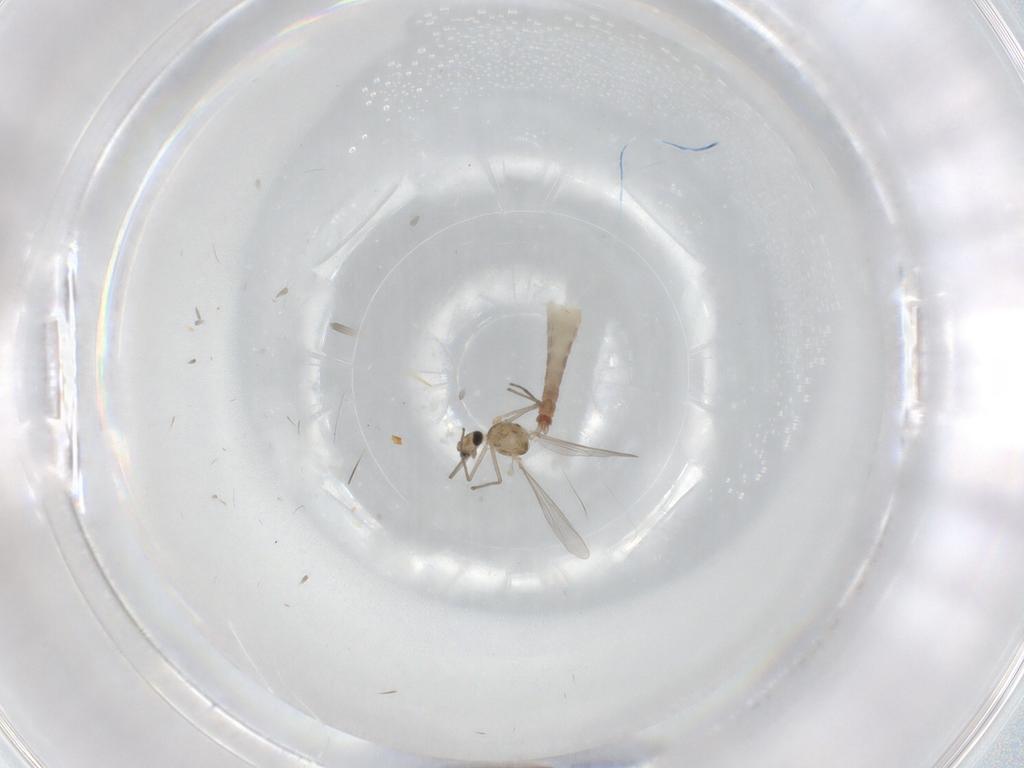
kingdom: Animalia
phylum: Arthropoda
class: Insecta
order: Diptera
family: Chironomidae
